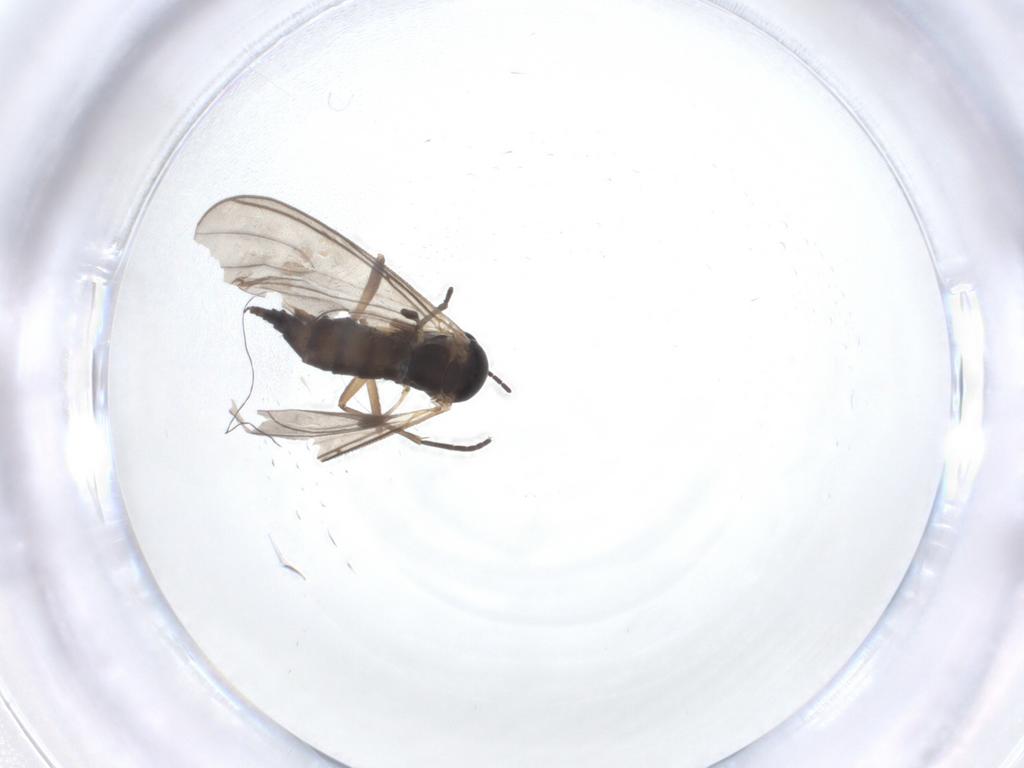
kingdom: Animalia
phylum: Arthropoda
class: Insecta
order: Diptera
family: Sciaridae
